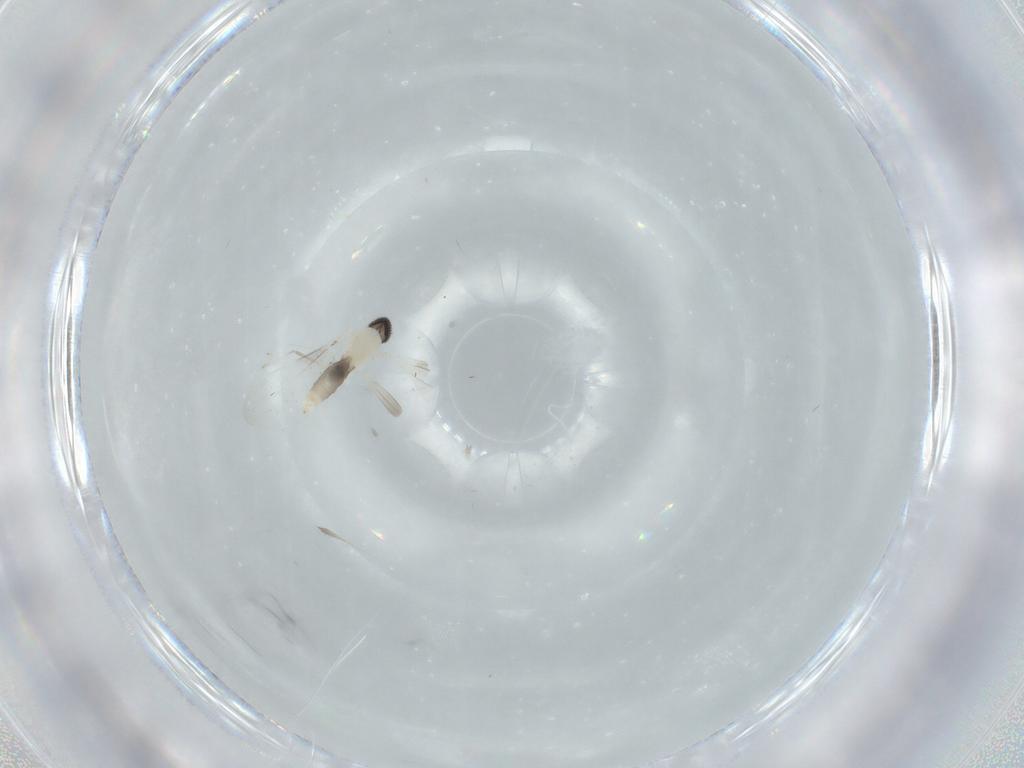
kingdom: Animalia
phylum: Arthropoda
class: Insecta
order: Diptera
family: Cecidomyiidae
